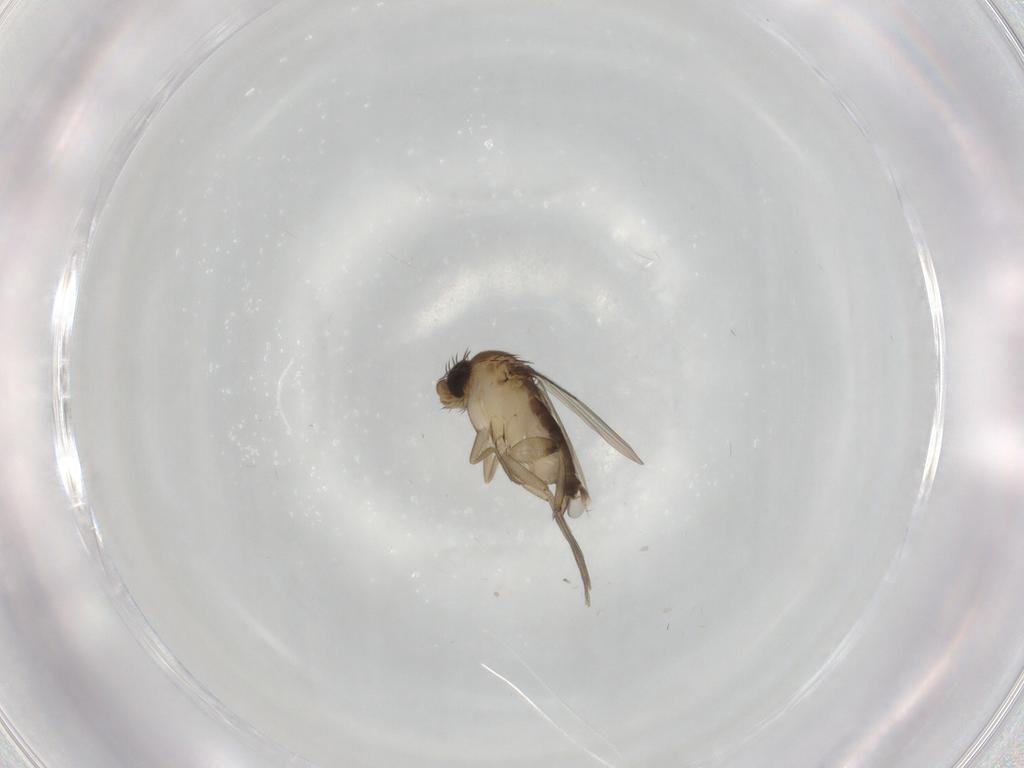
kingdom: Animalia
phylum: Arthropoda
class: Insecta
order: Diptera
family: Phoridae
